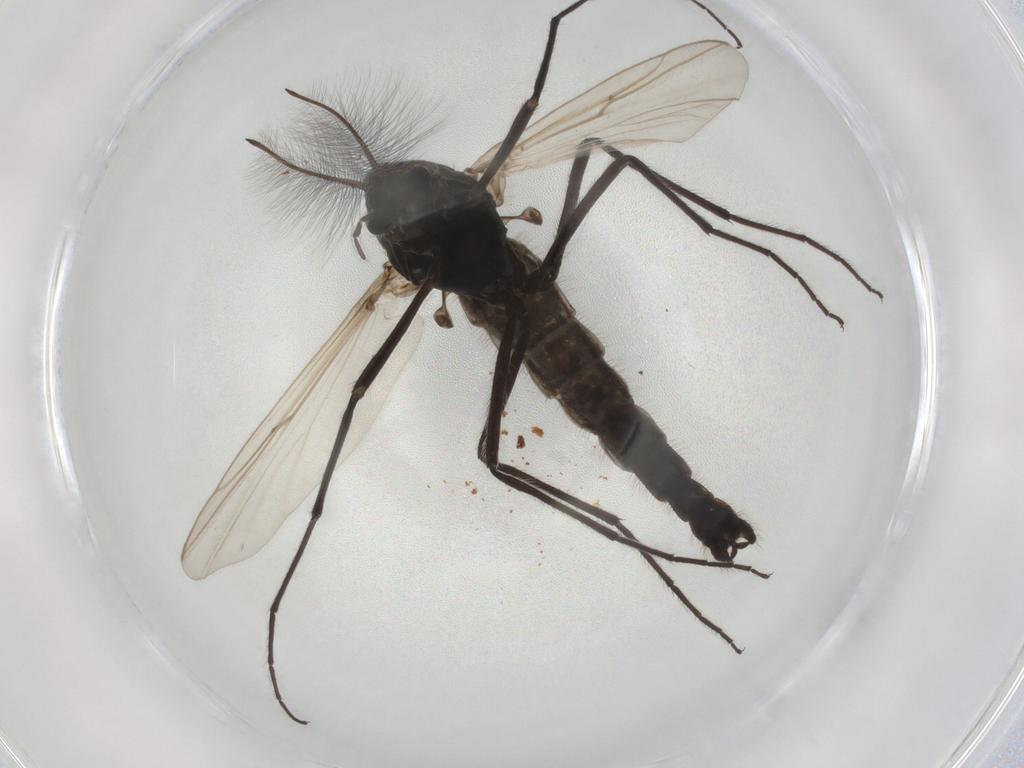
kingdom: Animalia
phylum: Arthropoda
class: Insecta
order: Diptera
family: Chironomidae
